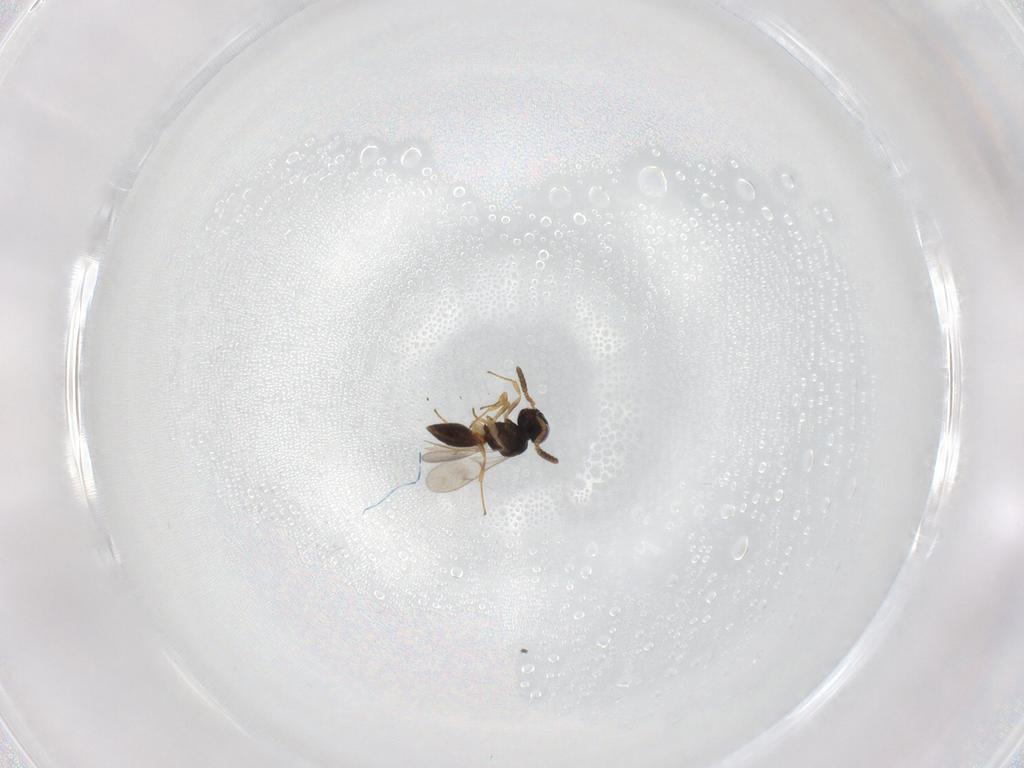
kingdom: Animalia
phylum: Arthropoda
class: Insecta
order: Hymenoptera
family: Scelionidae
